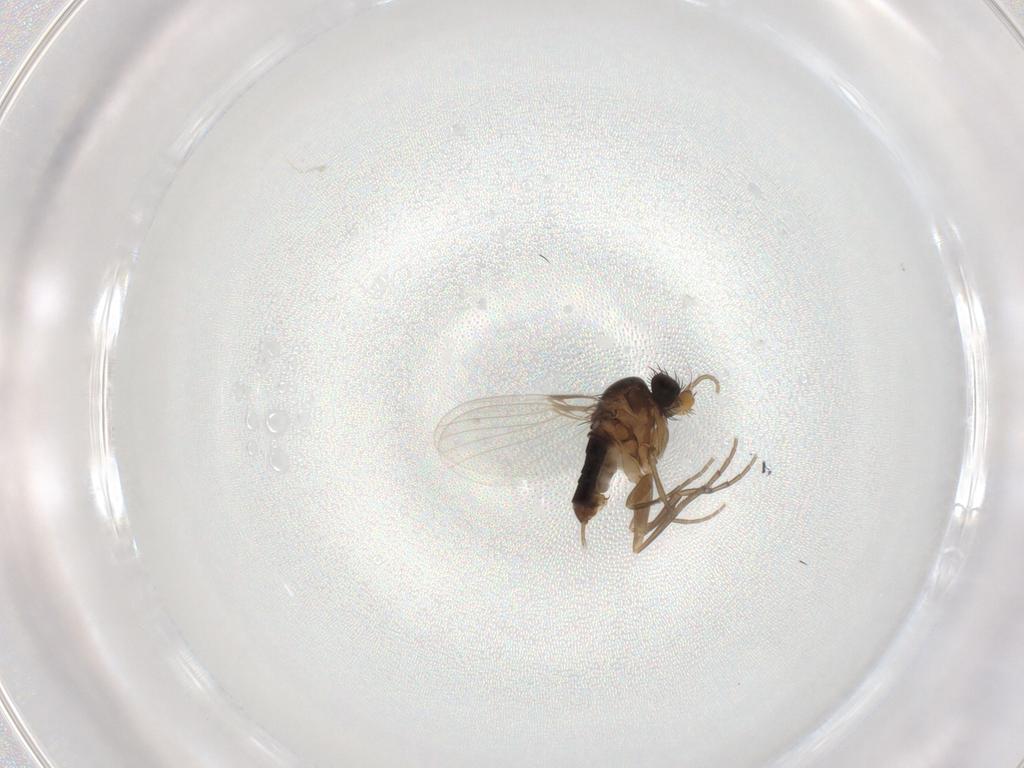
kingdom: Animalia
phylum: Arthropoda
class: Insecta
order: Diptera
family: Phoridae
